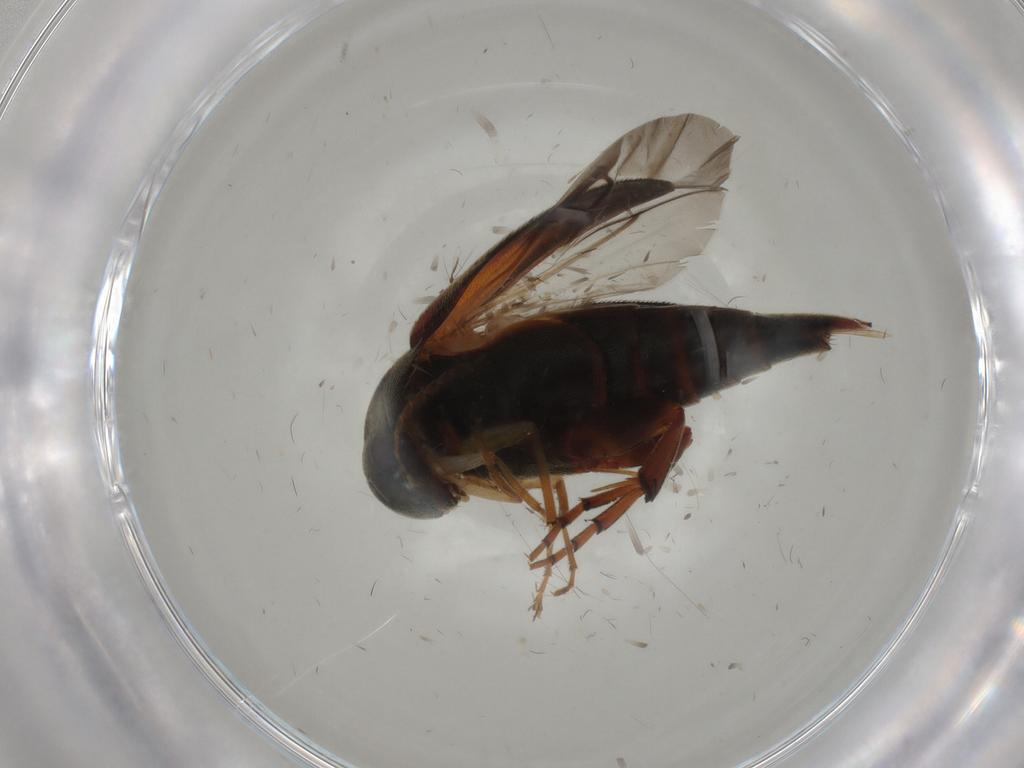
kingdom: Animalia
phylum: Arthropoda
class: Insecta
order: Coleoptera
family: Mordellidae
